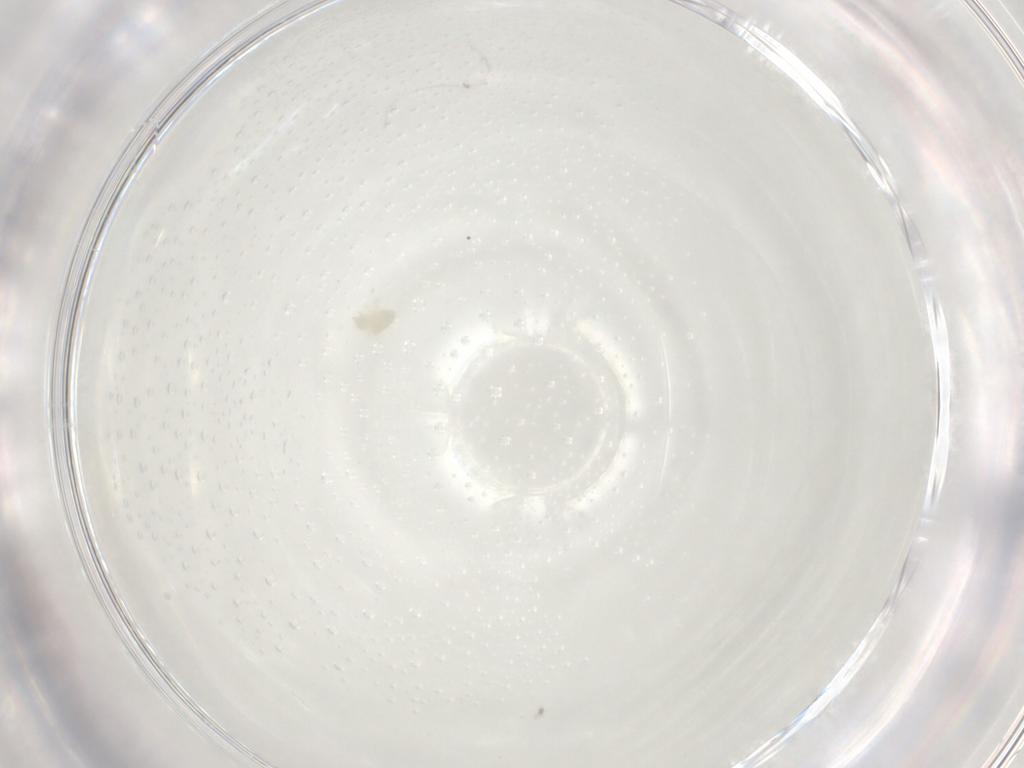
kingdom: Animalia
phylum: Arthropoda
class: Arachnida
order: Trombidiformes
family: Eupodidae
